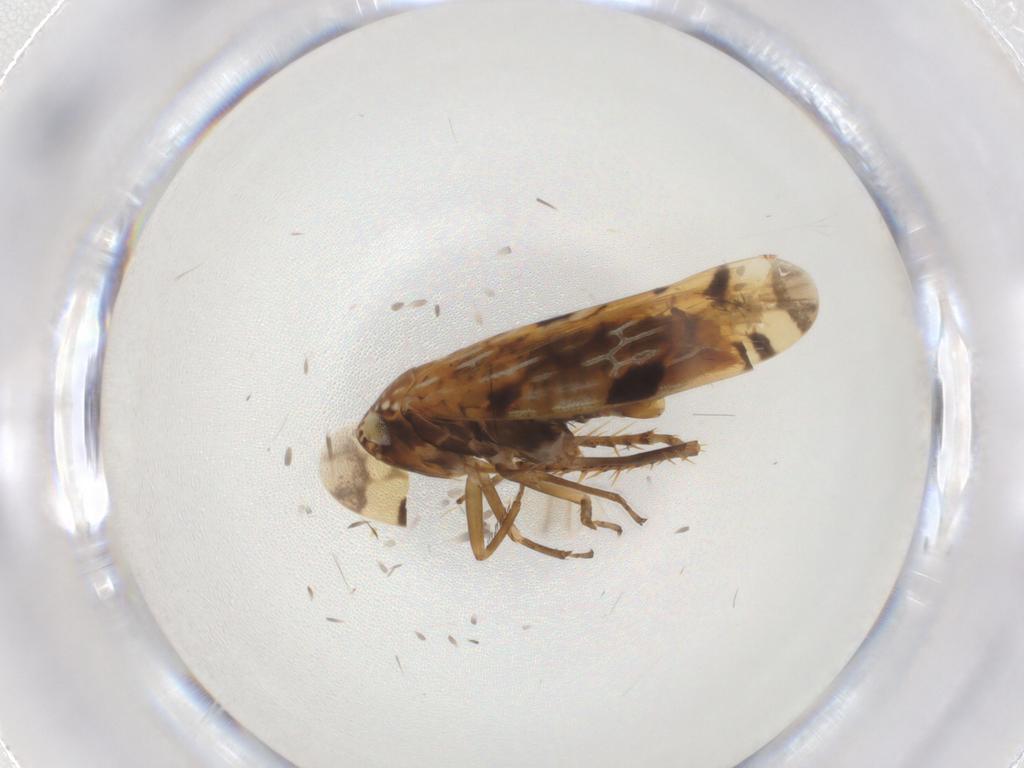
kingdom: Animalia
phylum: Arthropoda
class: Insecta
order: Hemiptera
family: Cicadellidae
